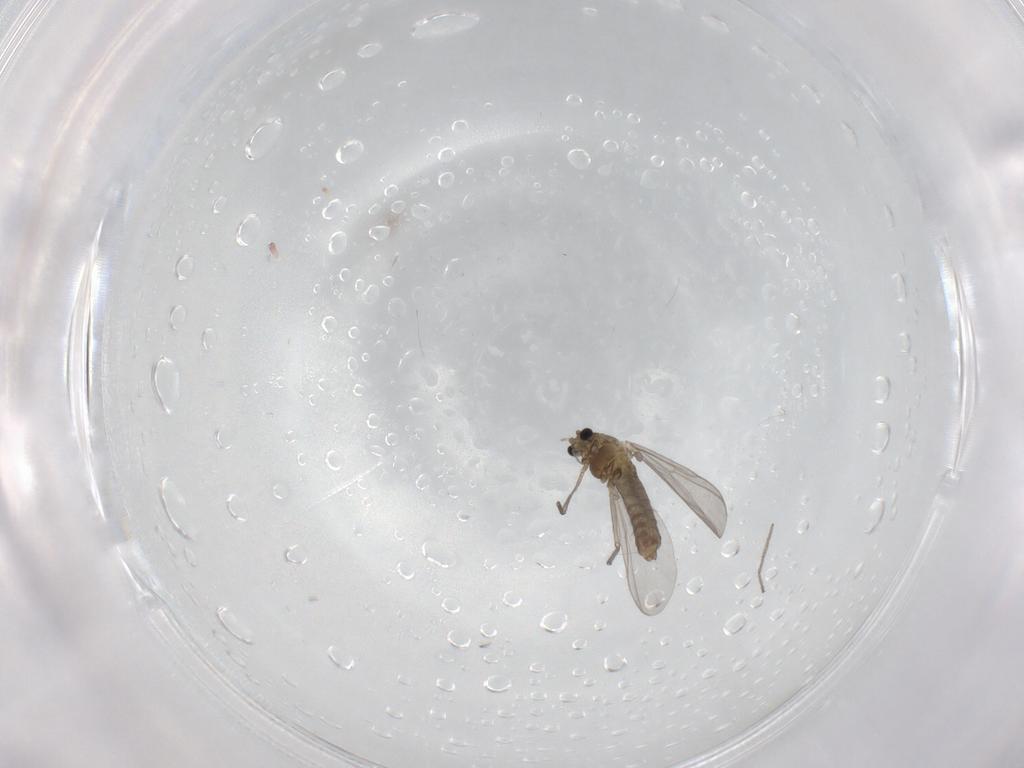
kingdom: Animalia
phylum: Arthropoda
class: Insecta
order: Diptera
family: Chironomidae
